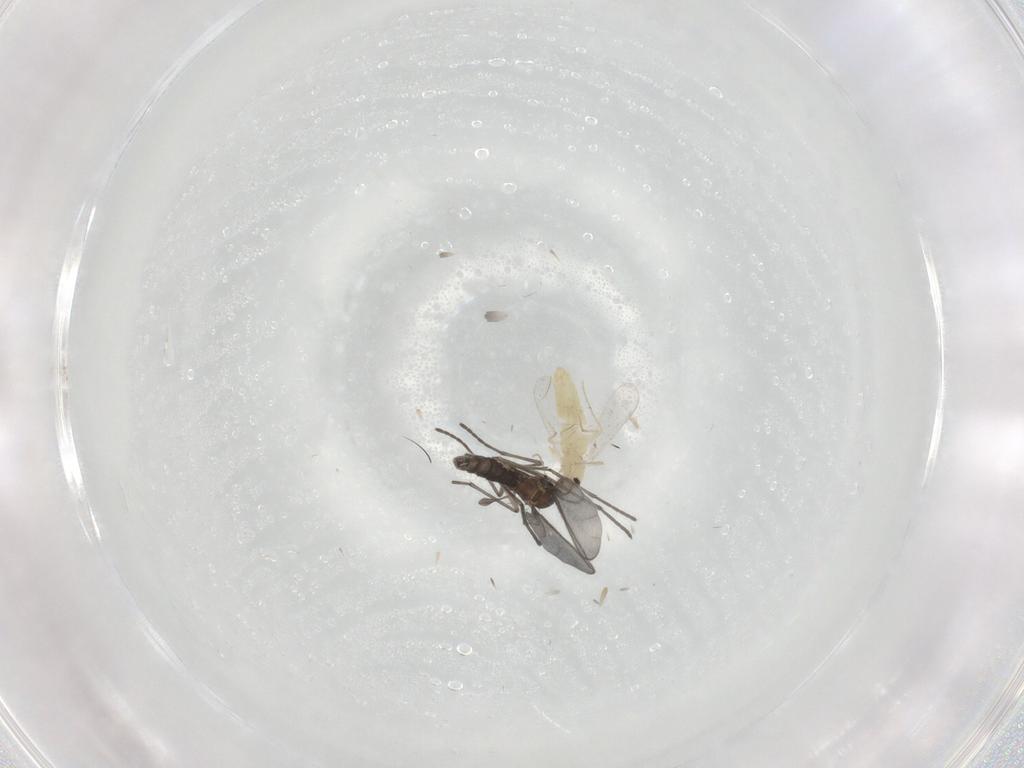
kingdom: Animalia
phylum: Arthropoda
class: Insecta
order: Diptera
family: Chironomidae
